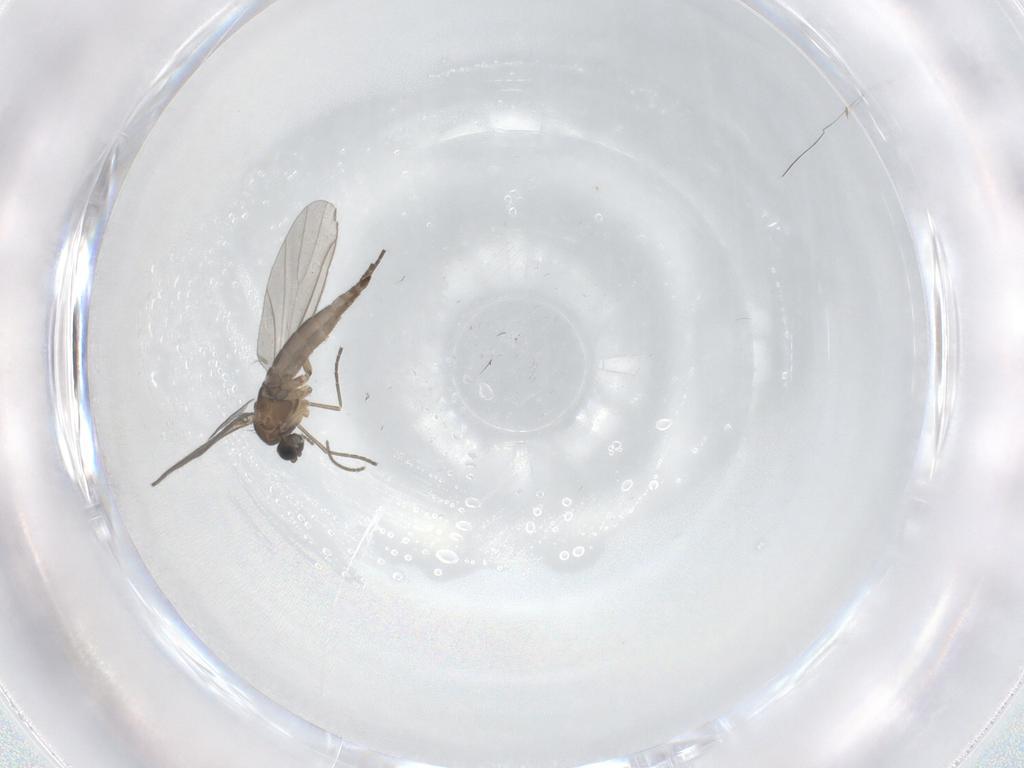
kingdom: Animalia
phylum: Arthropoda
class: Insecta
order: Diptera
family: Sciaridae
